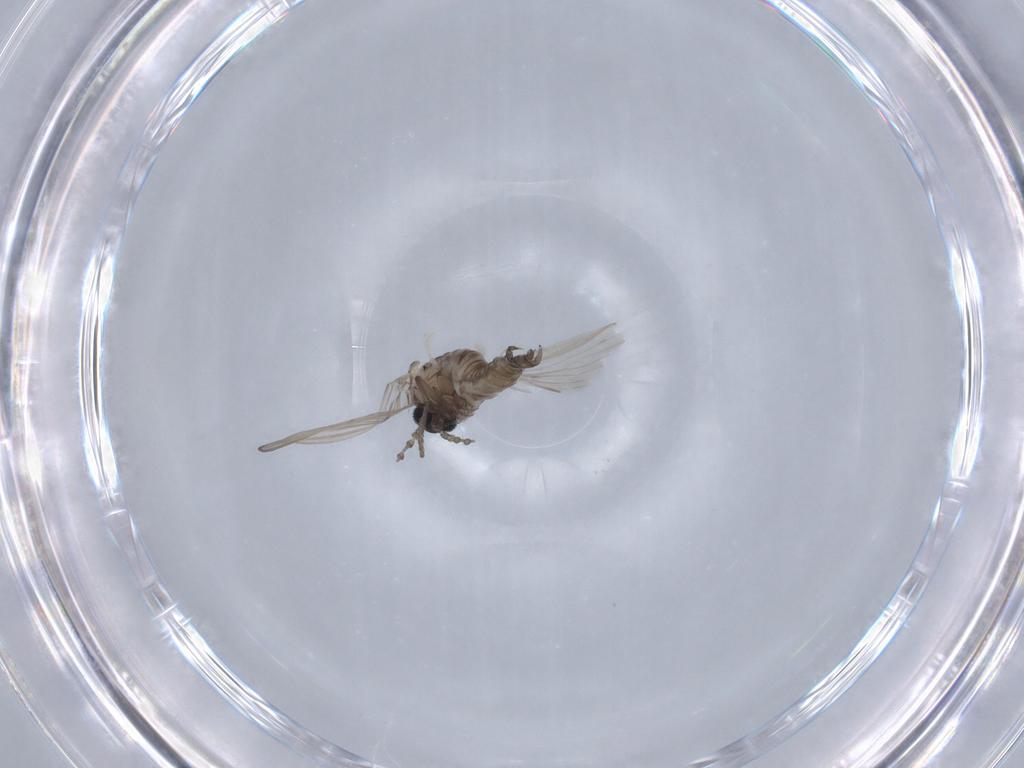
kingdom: Animalia
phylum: Arthropoda
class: Insecta
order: Diptera
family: Psychodidae
